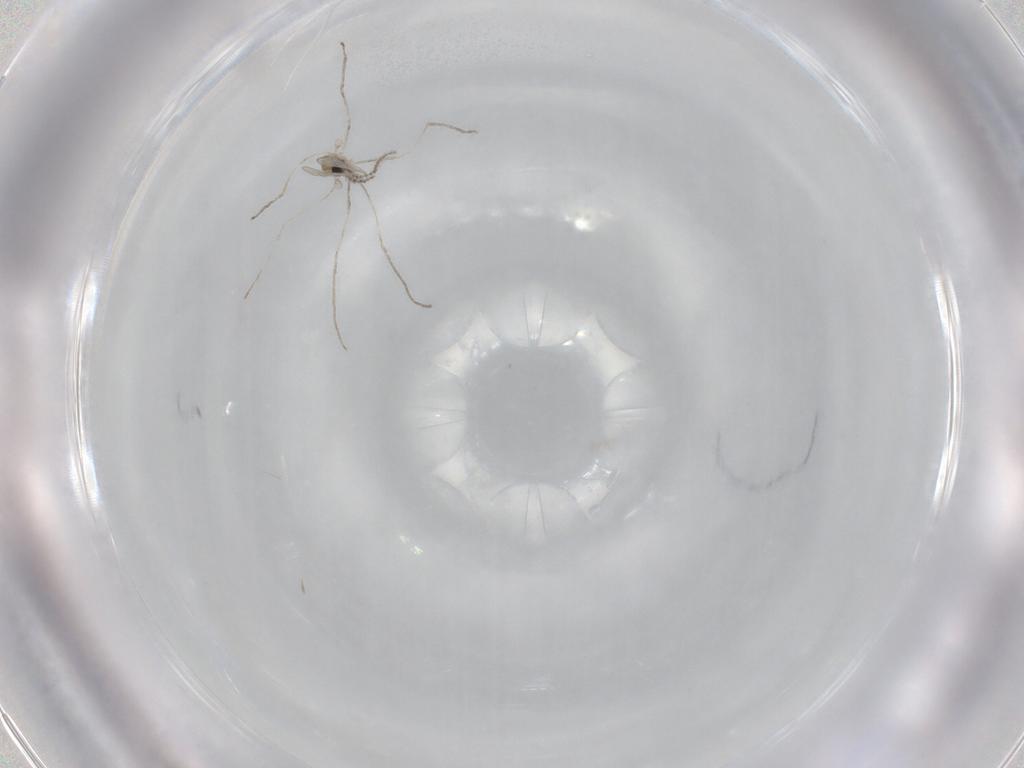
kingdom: Animalia
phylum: Arthropoda
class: Insecta
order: Diptera
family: Cecidomyiidae
